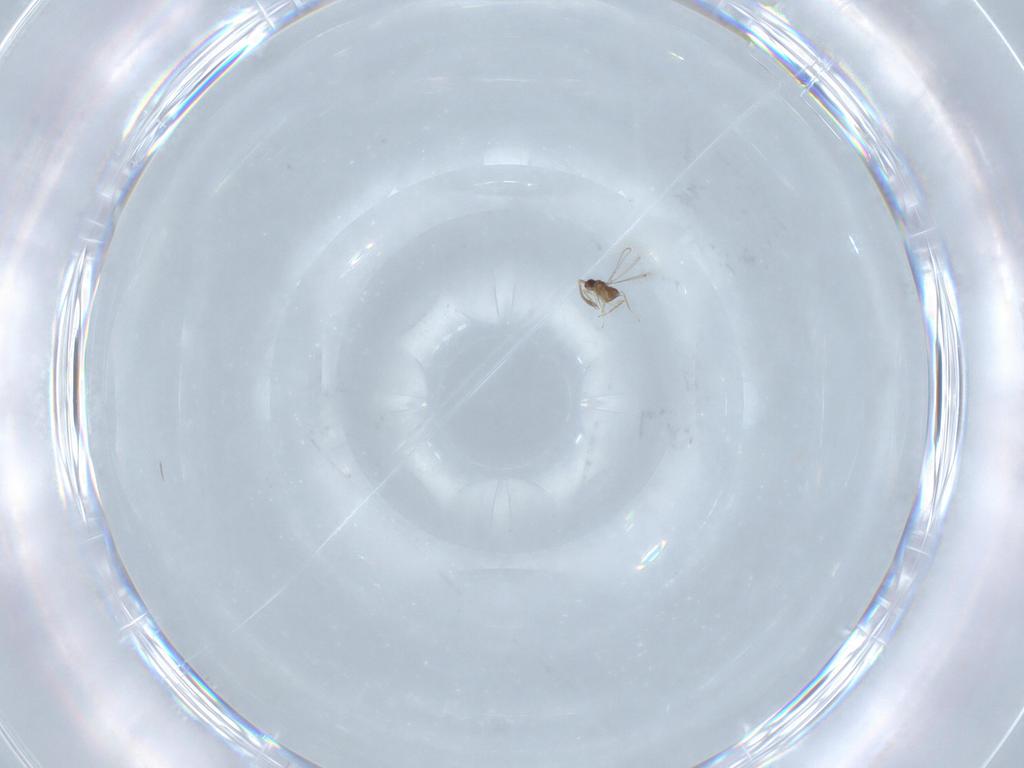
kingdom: Animalia
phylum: Arthropoda
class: Insecta
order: Hymenoptera
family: Mymaridae
